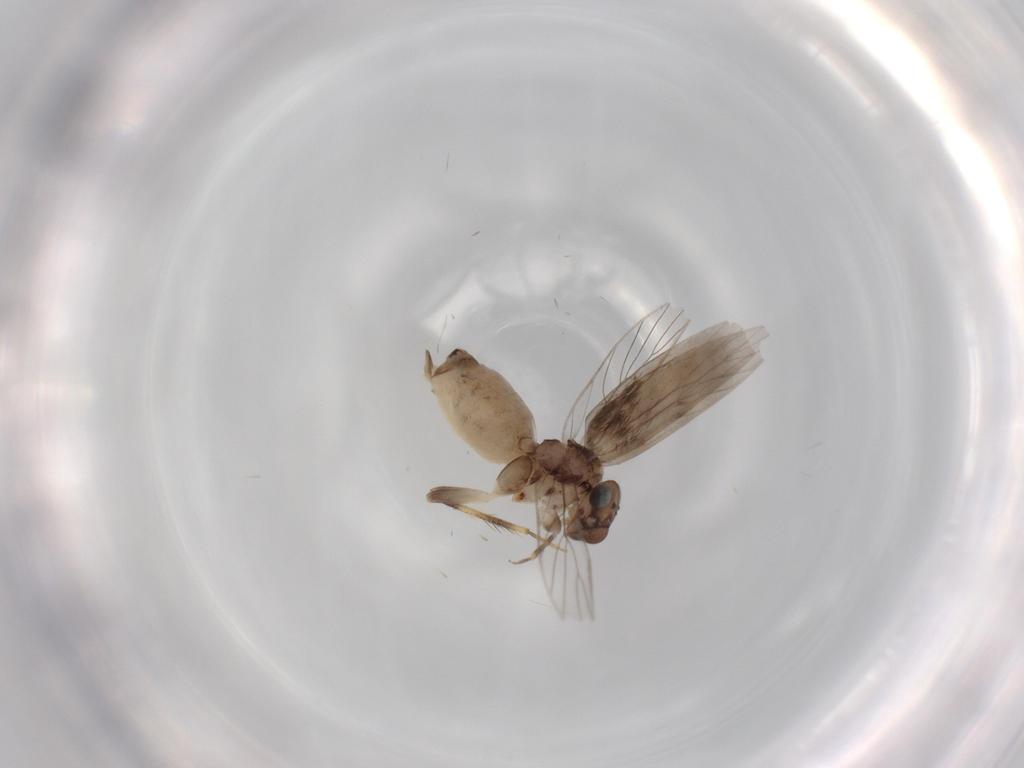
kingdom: Animalia
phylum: Arthropoda
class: Insecta
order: Psocodea
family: Lepidopsocidae
